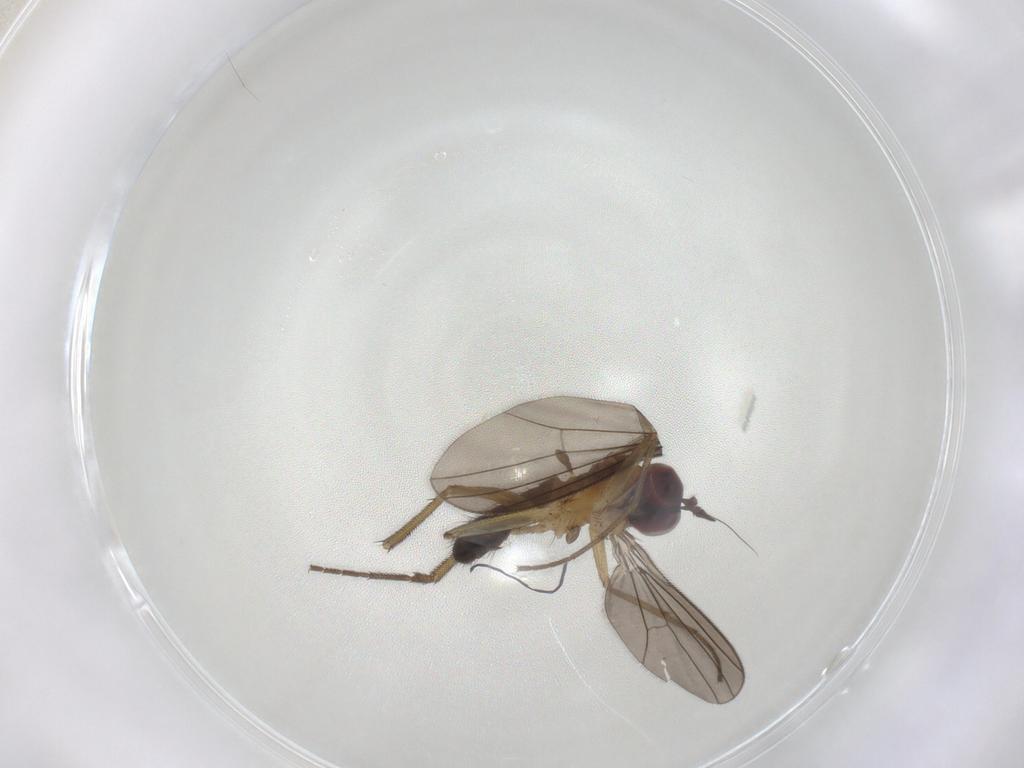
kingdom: Animalia
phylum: Arthropoda
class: Insecta
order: Diptera
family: Dolichopodidae
